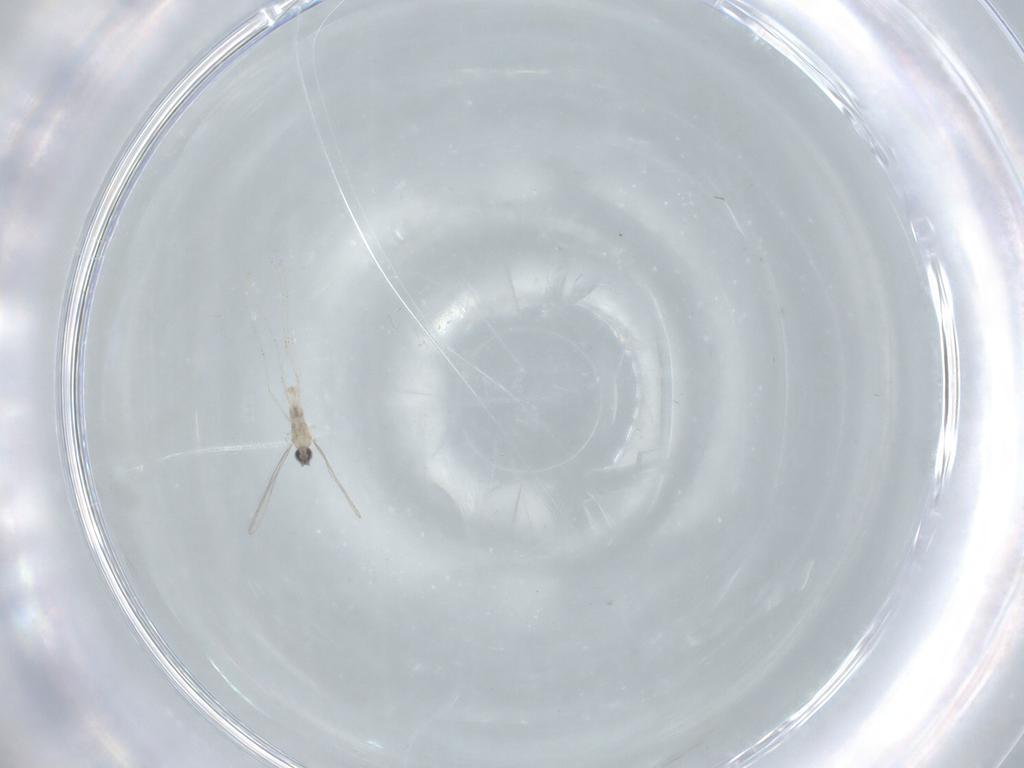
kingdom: Animalia
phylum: Arthropoda
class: Insecta
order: Diptera
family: Cecidomyiidae
